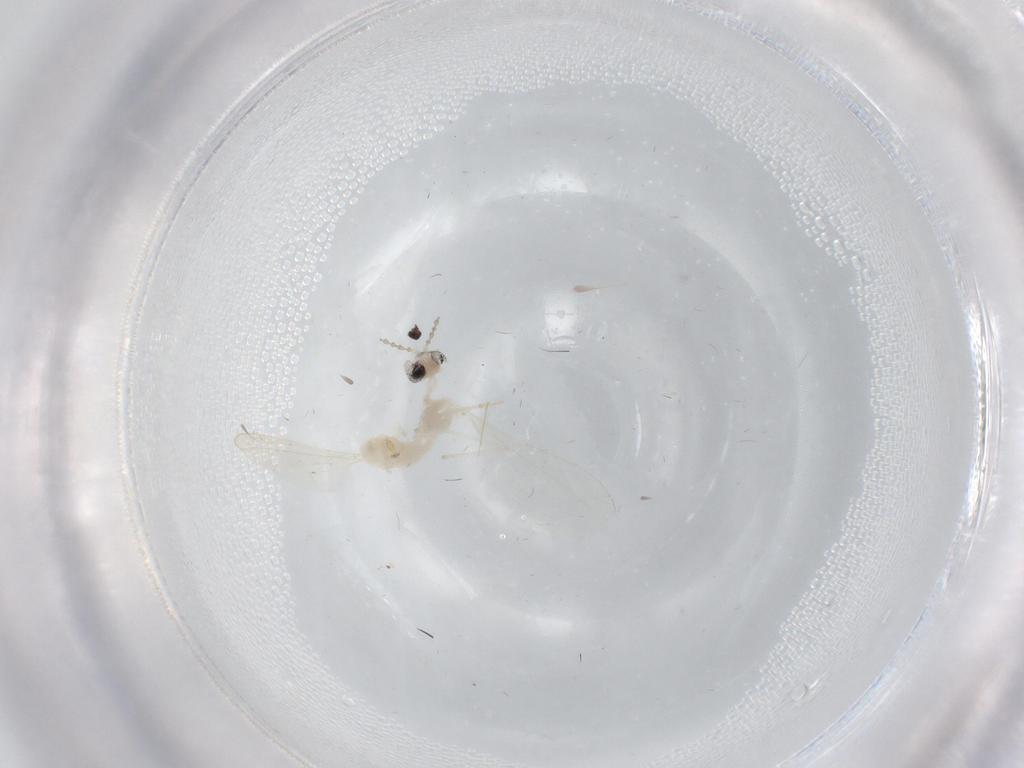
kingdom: Animalia
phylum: Arthropoda
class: Insecta
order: Diptera
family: Cecidomyiidae
